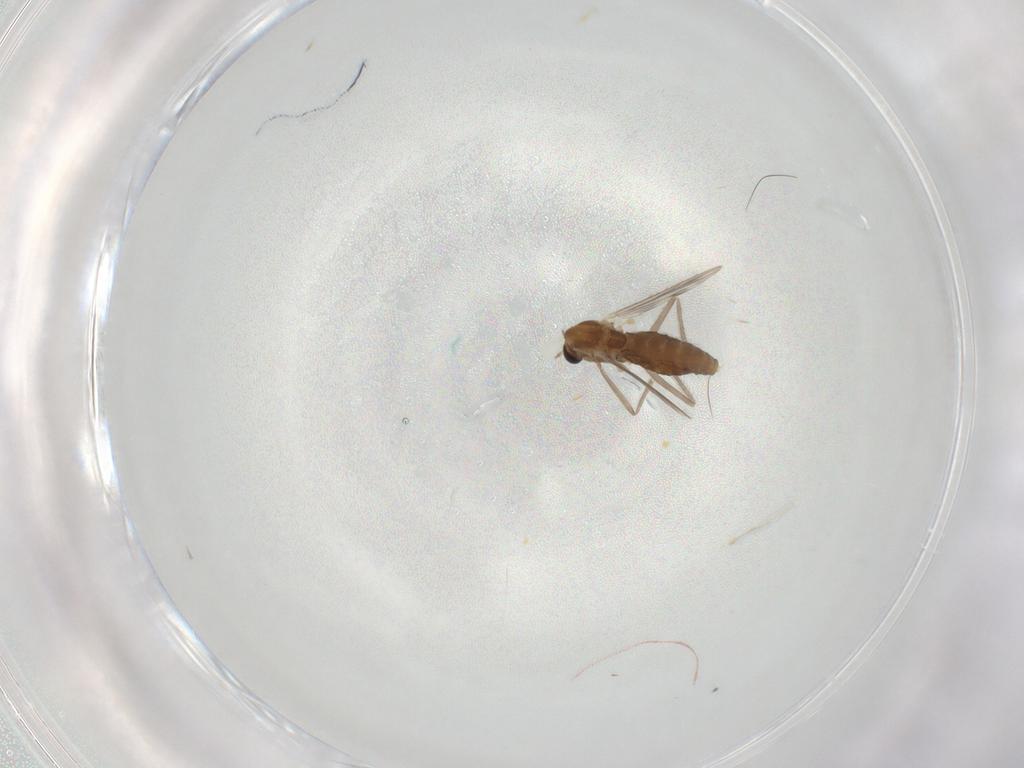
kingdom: Animalia
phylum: Arthropoda
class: Insecta
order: Diptera
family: Chironomidae
